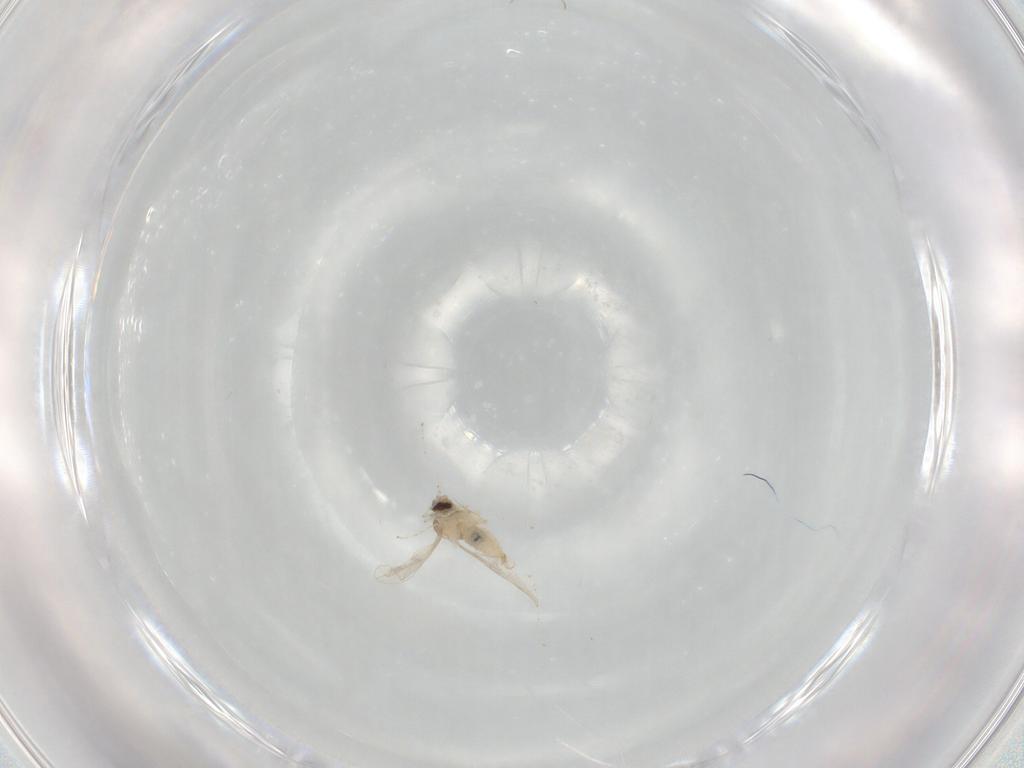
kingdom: Animalia
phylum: Arthropoda
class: Insecta
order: Diptera
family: Cecidomyiidae
